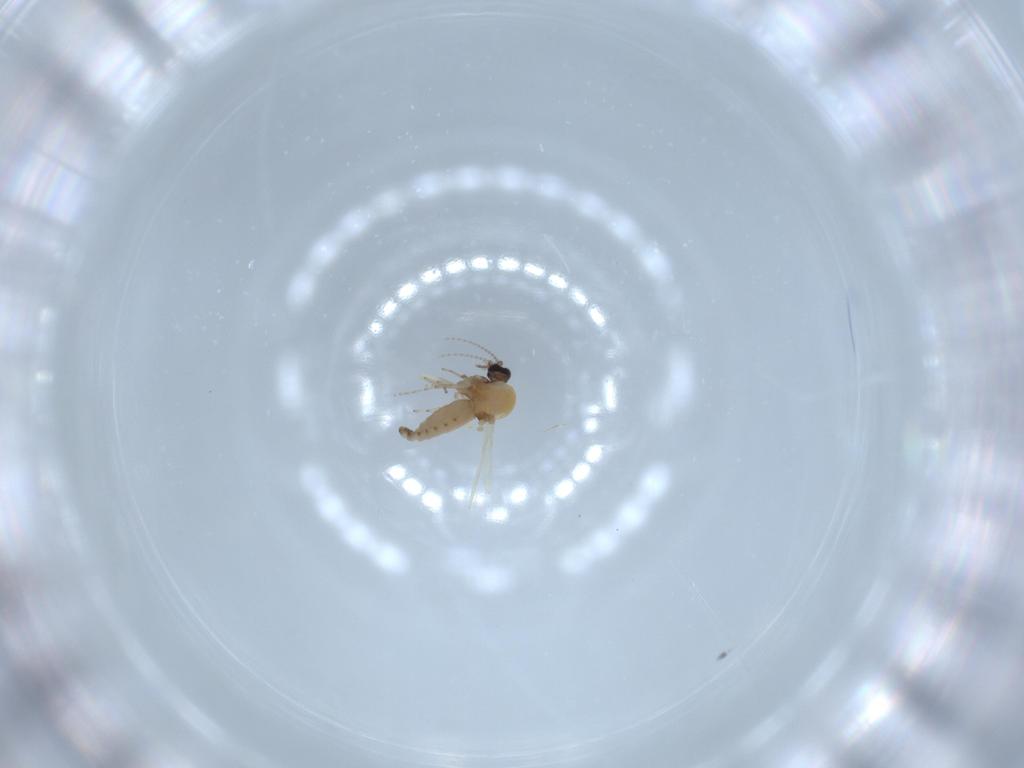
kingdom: Animalia
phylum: Arthropoda
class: Insecta
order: Diptera
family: Ceratopogonidae
